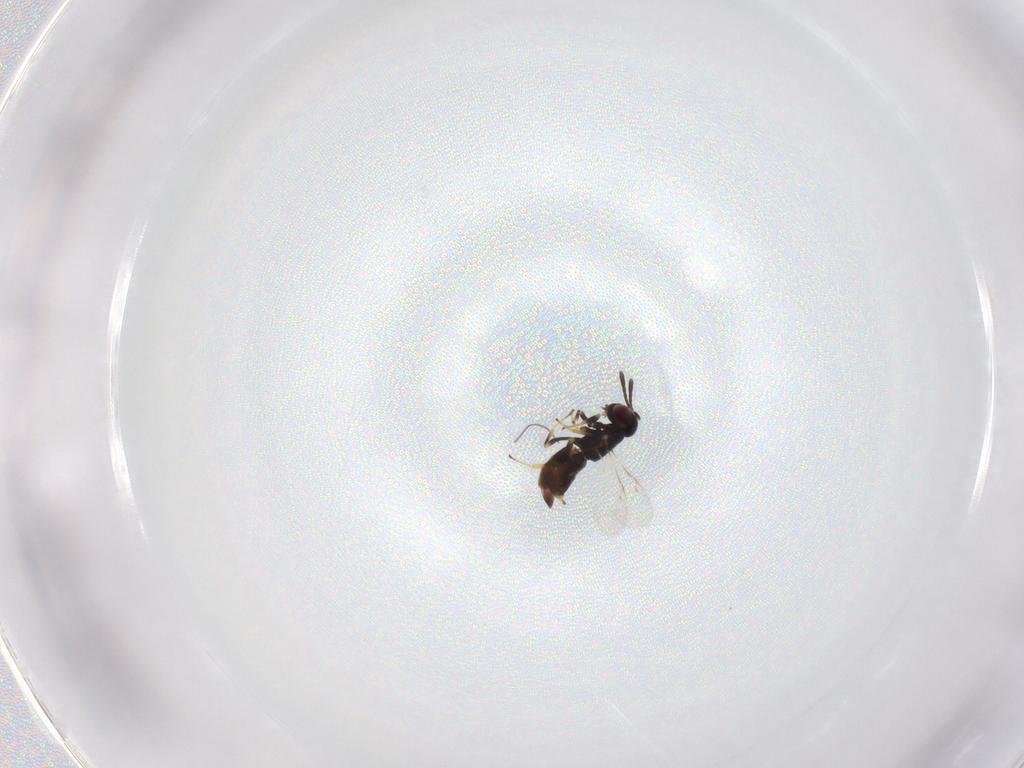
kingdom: Animalia
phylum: Arthropoda
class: Insecta
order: Hymenoptera
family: Encyrtidae
